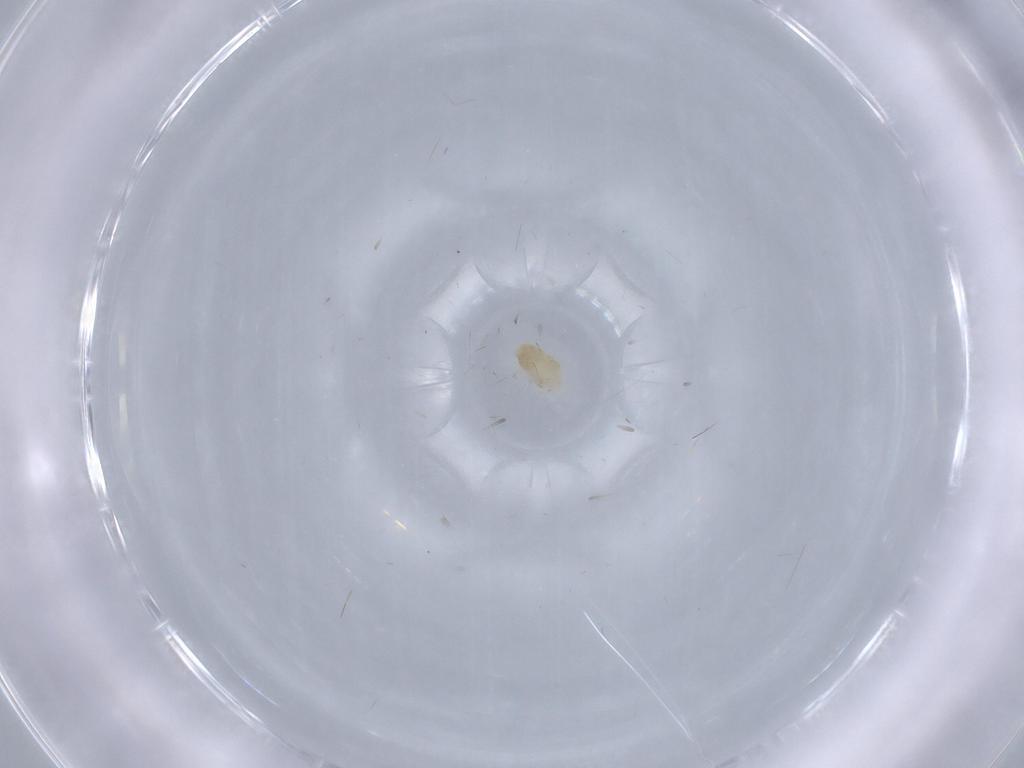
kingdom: Animalia
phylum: Arthropoda
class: Arachnida
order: Trombidiformes
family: Eupodidae
